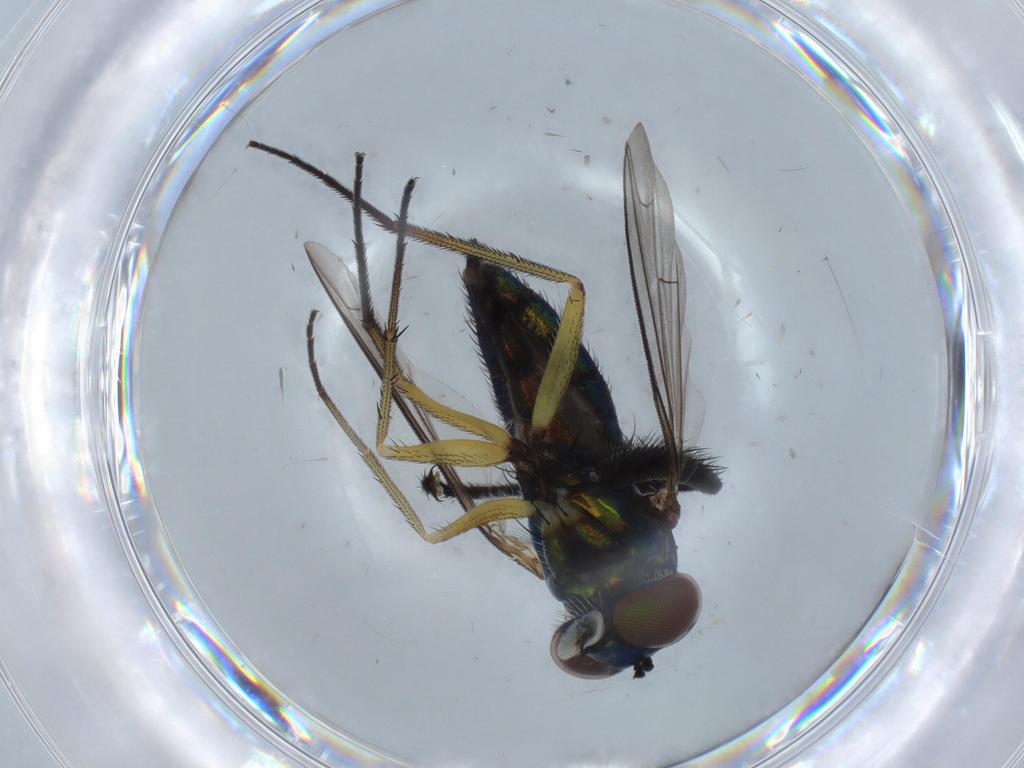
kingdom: Animalia
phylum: Arthropoda
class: Insecta
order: Diptera
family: Dolichopodidae
